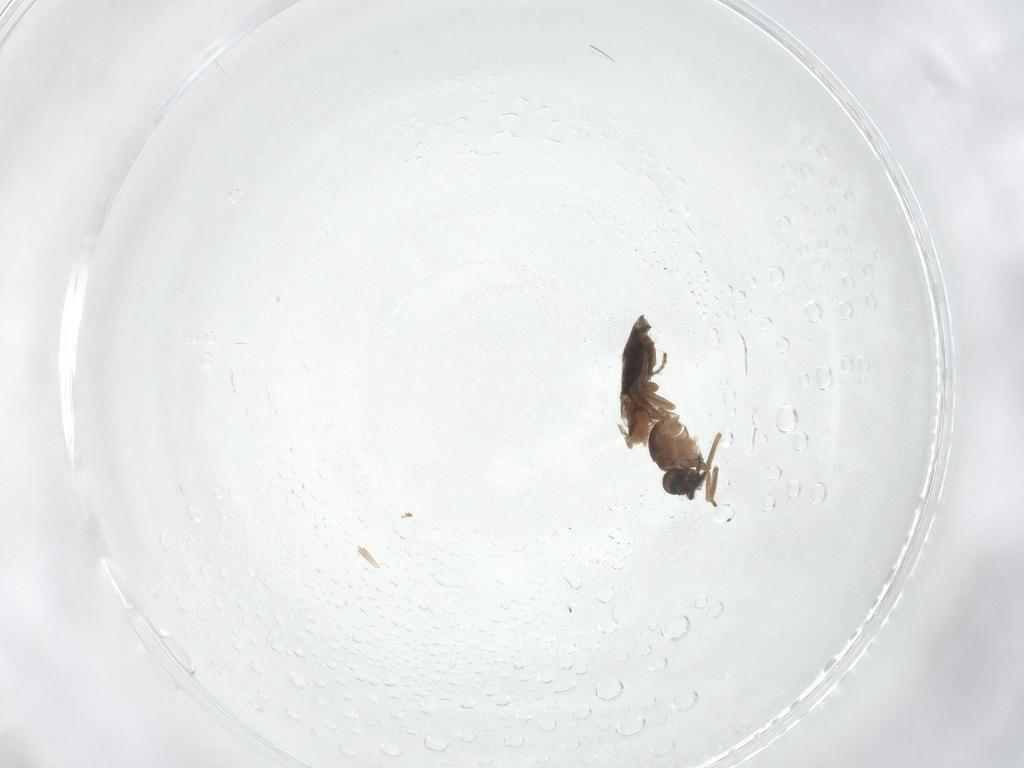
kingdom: Animalia
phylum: Arthropoda
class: Insecta
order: Diptera
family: Ceratopogonidae
